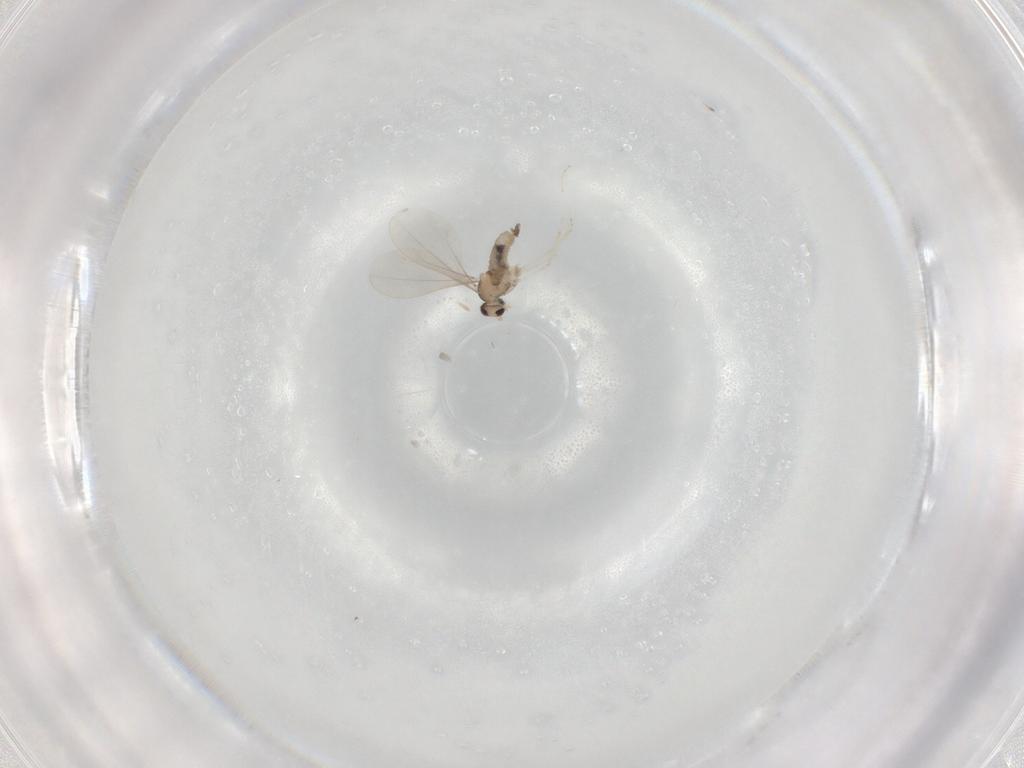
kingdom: Animalia
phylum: Arthropoda
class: Insecta
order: Diptera
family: Cecidomyiidae
